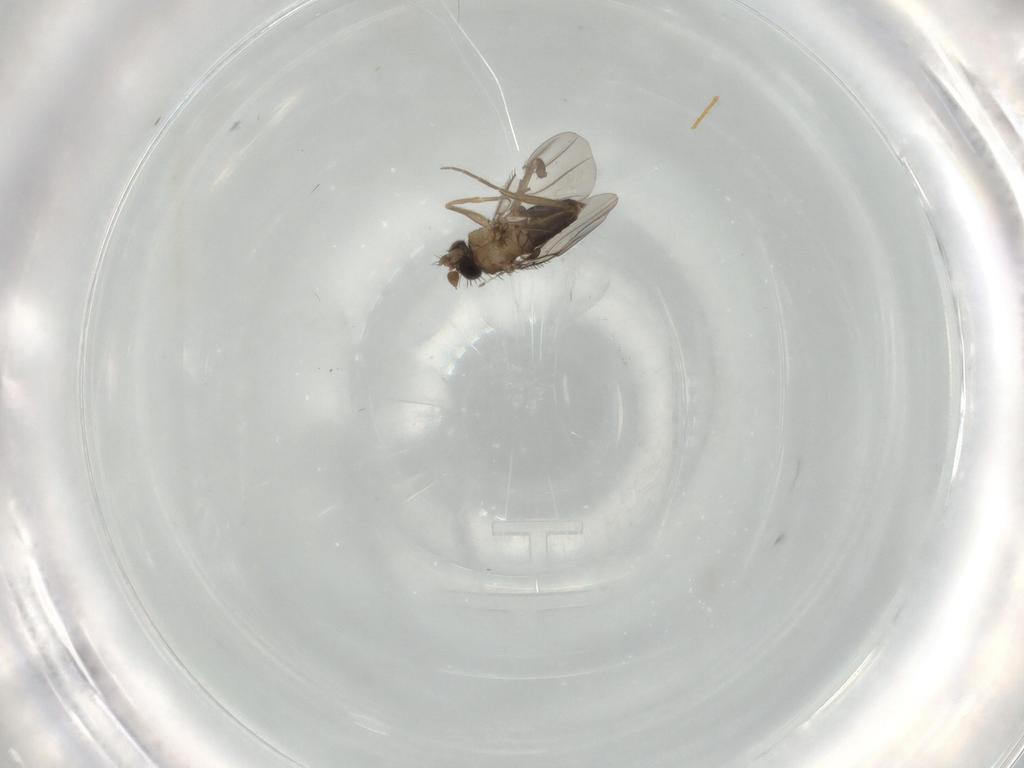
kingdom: Animalia
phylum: Arthropoda
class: Insecta
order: Diptera
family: Phoridae
